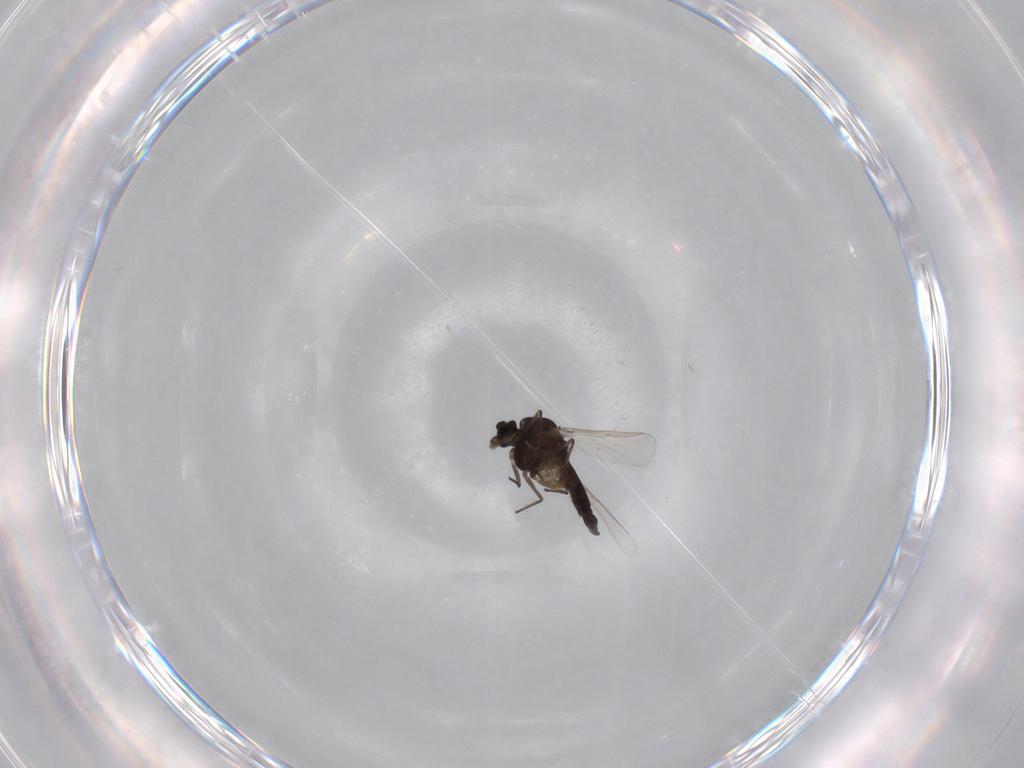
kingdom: Animalia
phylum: Arthropoda
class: Insecta
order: Diptera
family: Chironomidae
